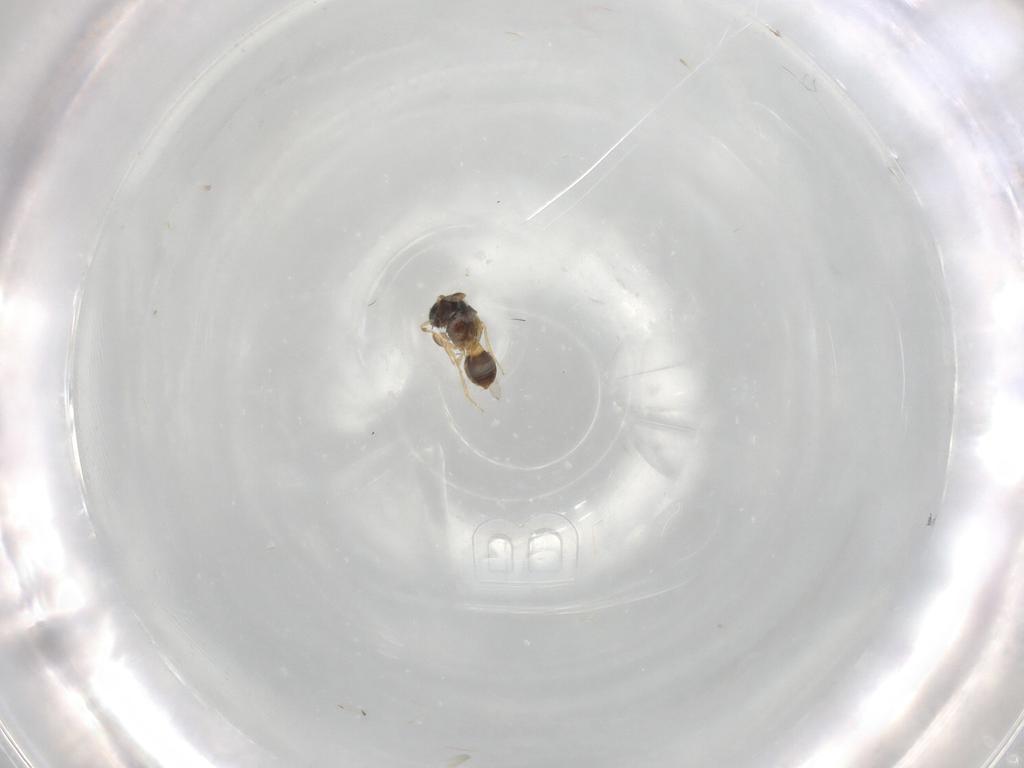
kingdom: Animalia
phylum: Arthropoda
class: Insecta
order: Hymenoptera
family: Scelionidae
